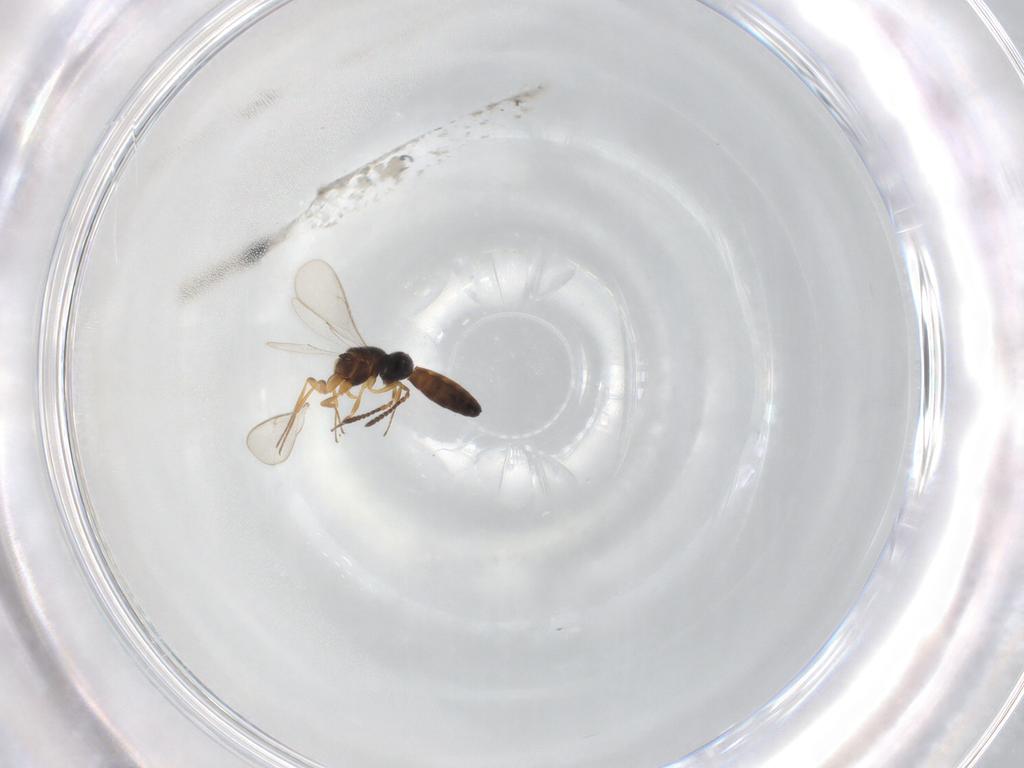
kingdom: Animalia
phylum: Arthropoda
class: Insecta
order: Hymenoptera
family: Scelionidae
